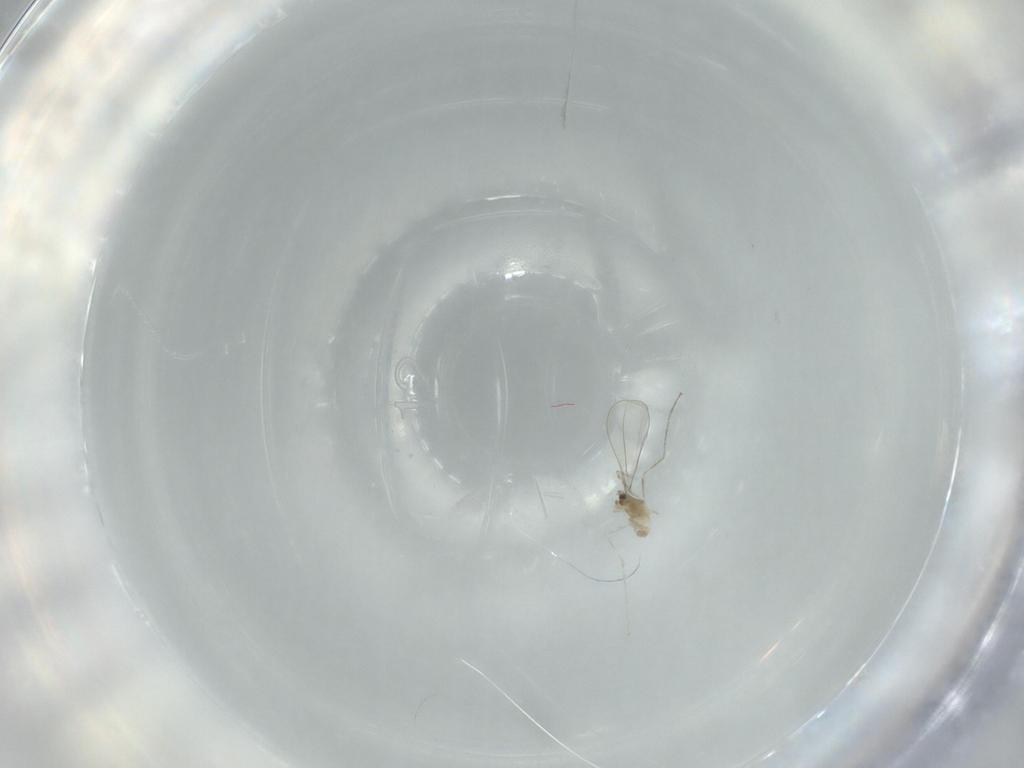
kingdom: Animalia
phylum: Arthropoda
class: Insecta
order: Diptera
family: Cecidomyiidae
